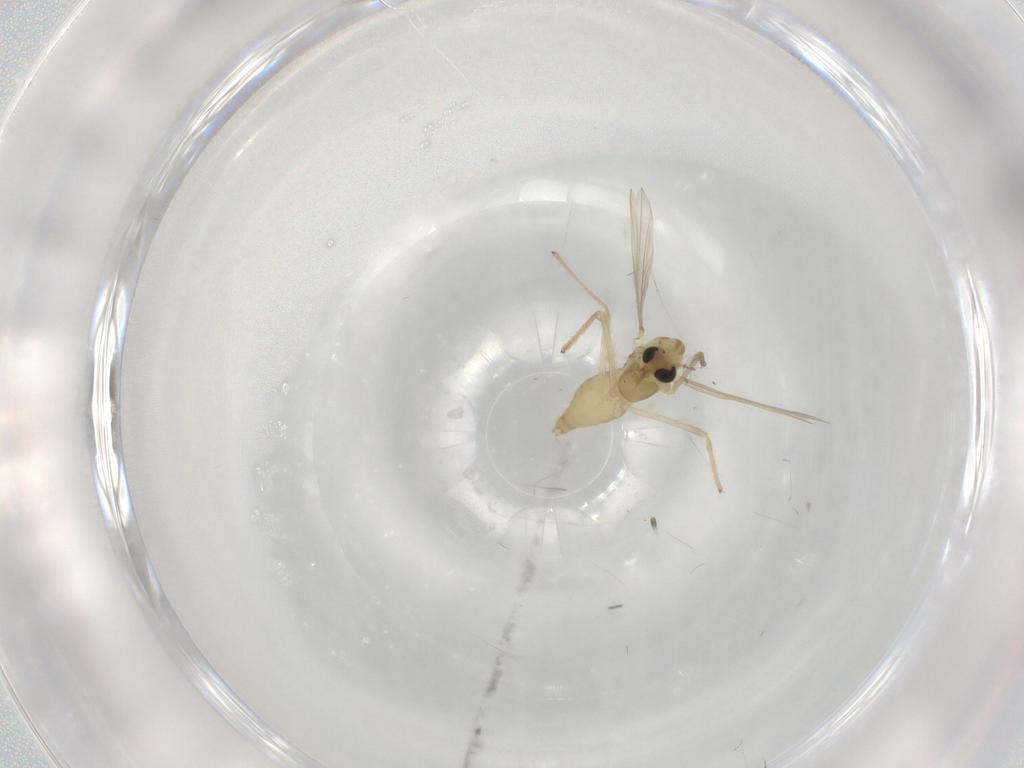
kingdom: Animalia
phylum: Arthropoda
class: Insecta
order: Diptera
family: Chironomidae
